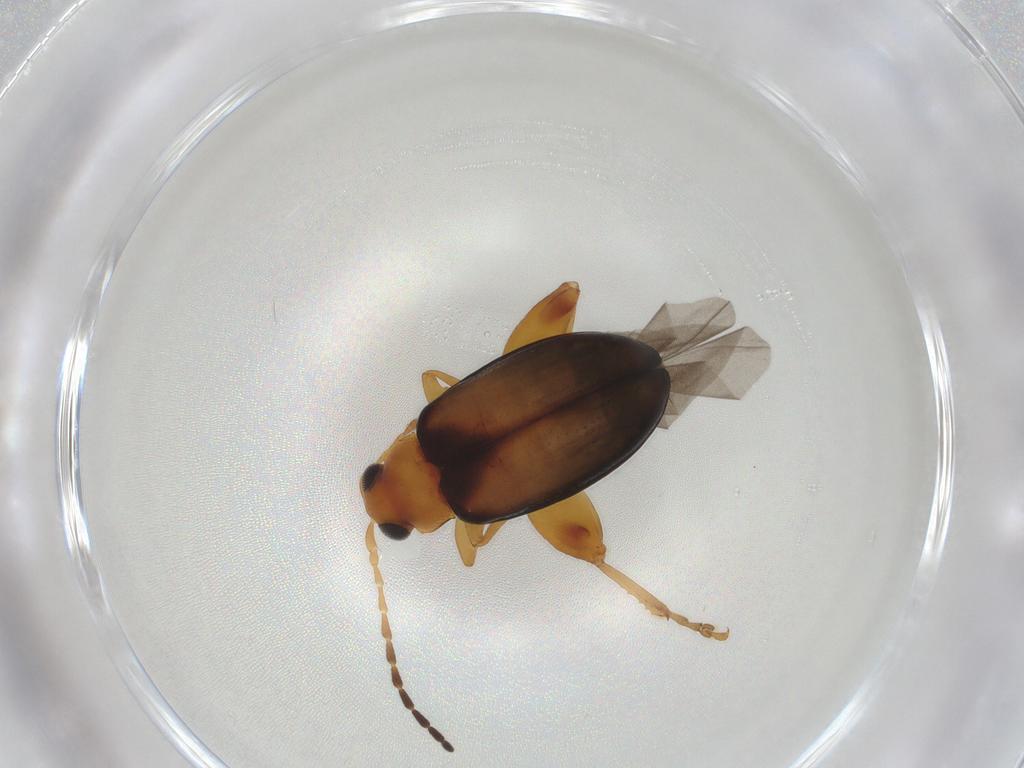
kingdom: Animalia
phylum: Arthropoda
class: Insecta
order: Coleoptera
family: Chrysomelidae
